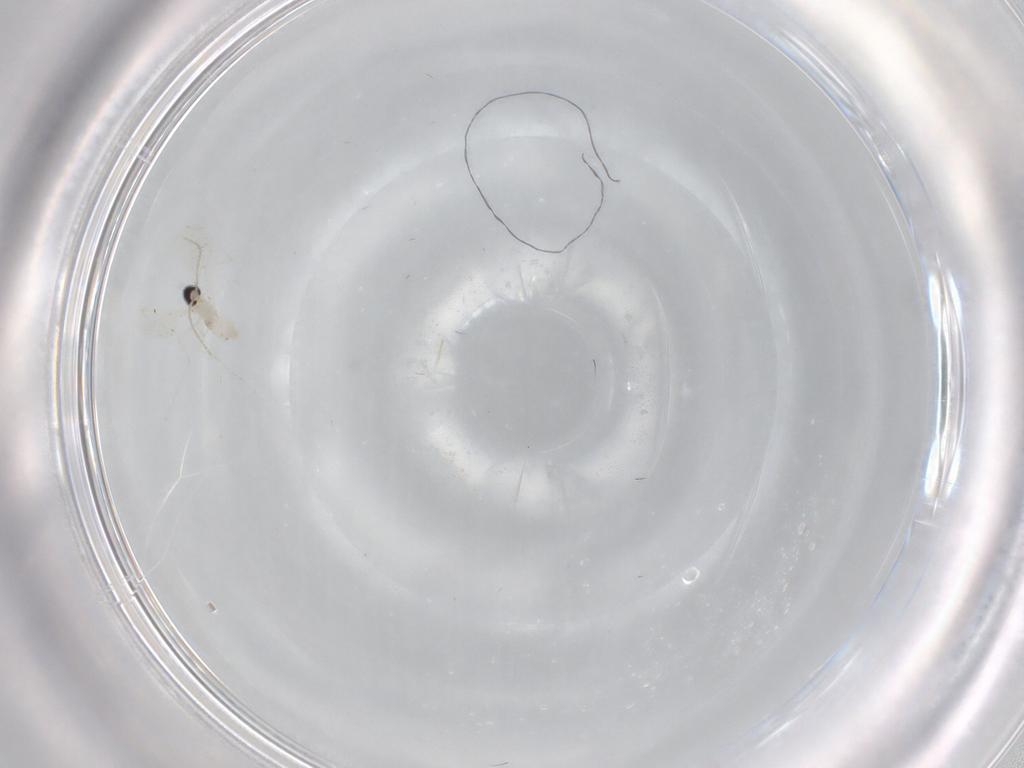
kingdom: Animalia
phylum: Arthropoda
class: Insecta
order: Diptera
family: Cecidomyiidae
